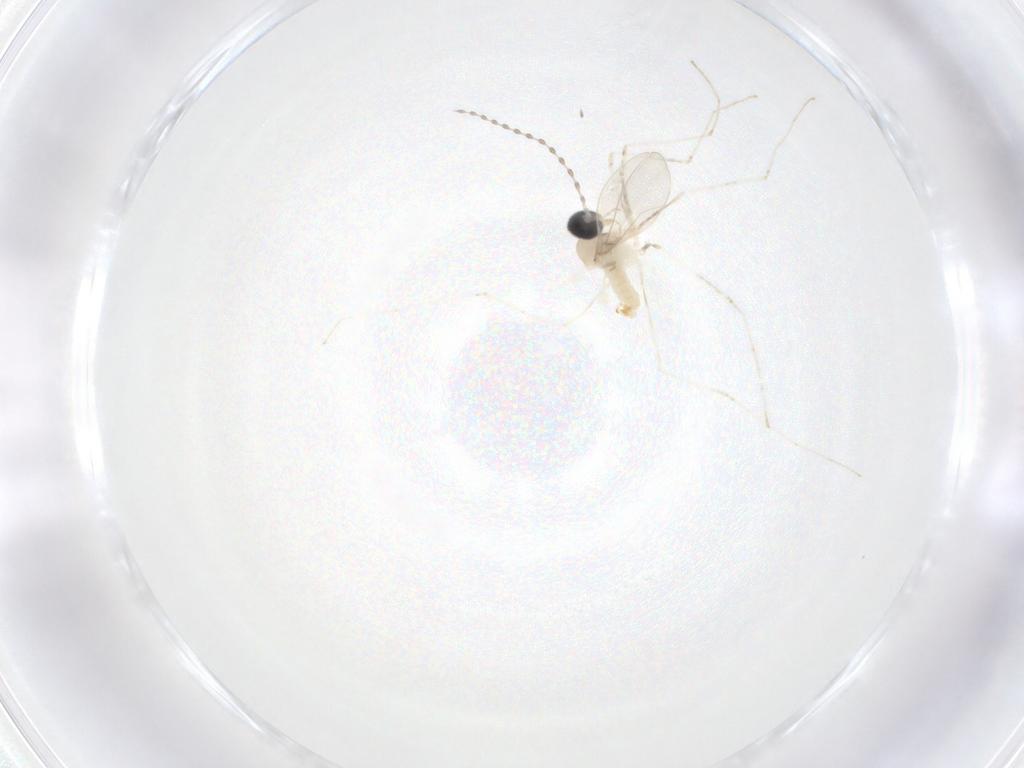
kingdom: Animalia
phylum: Arthropoda
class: Insecta
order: Diptera
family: Cecidomyiidae
